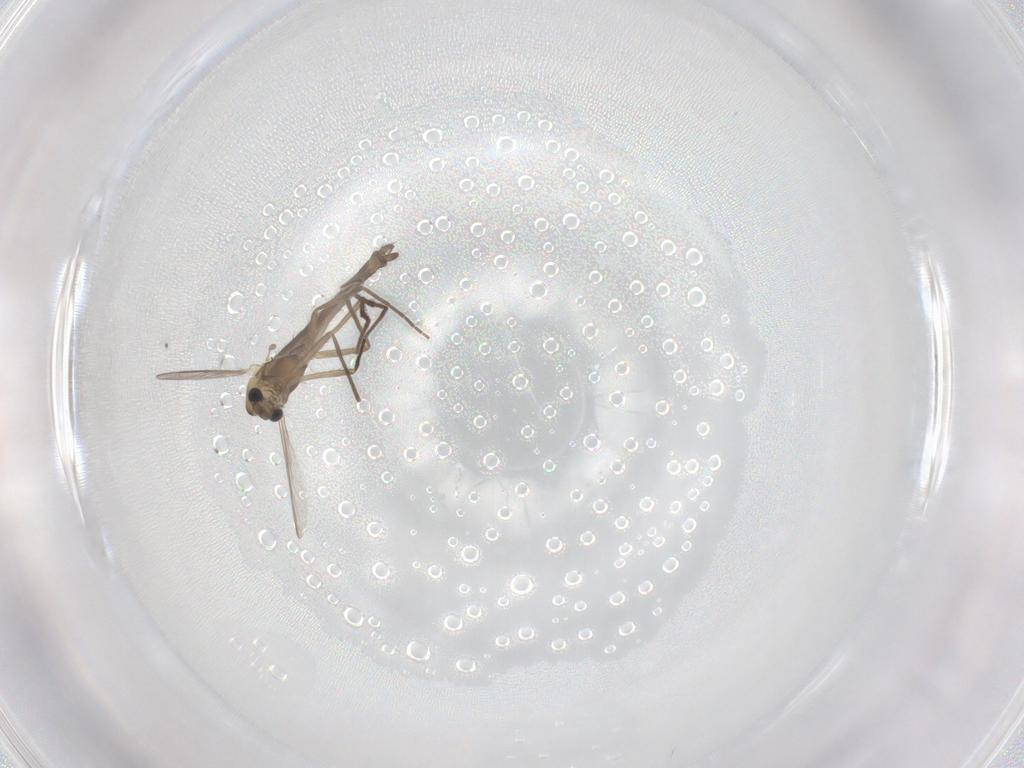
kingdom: Animalia
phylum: Arthropoda
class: Insecta
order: Diptera
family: Chironomidae
